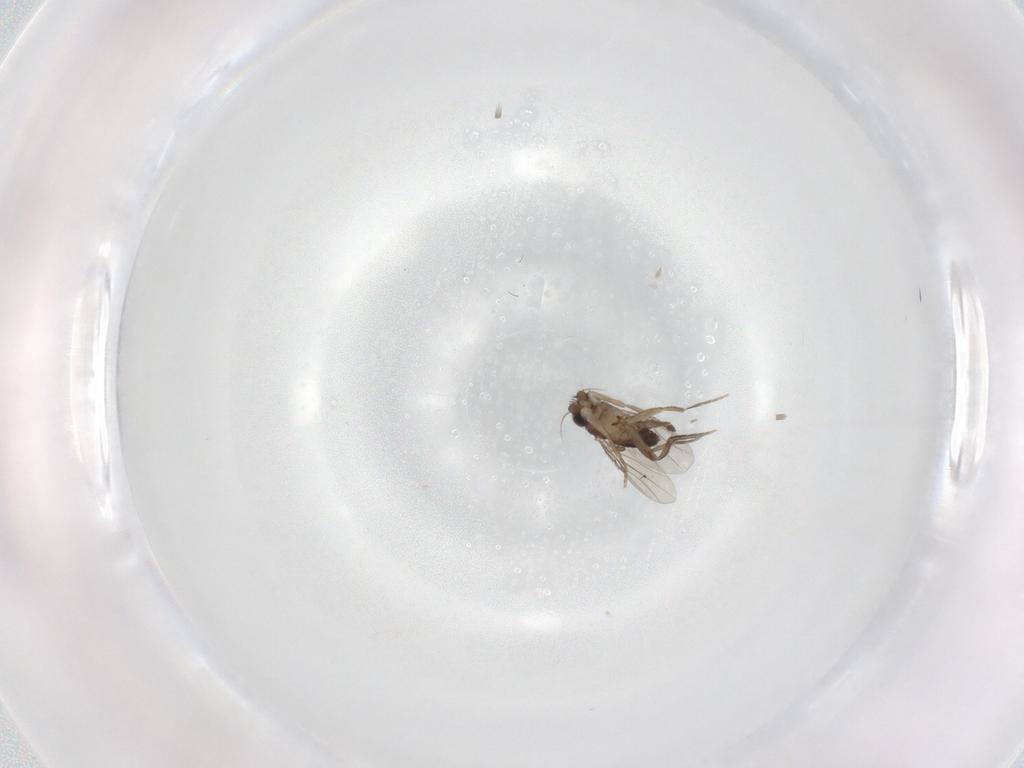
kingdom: Animalia
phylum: Arthropoda
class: Insecta
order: Diptera
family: Phoridae
